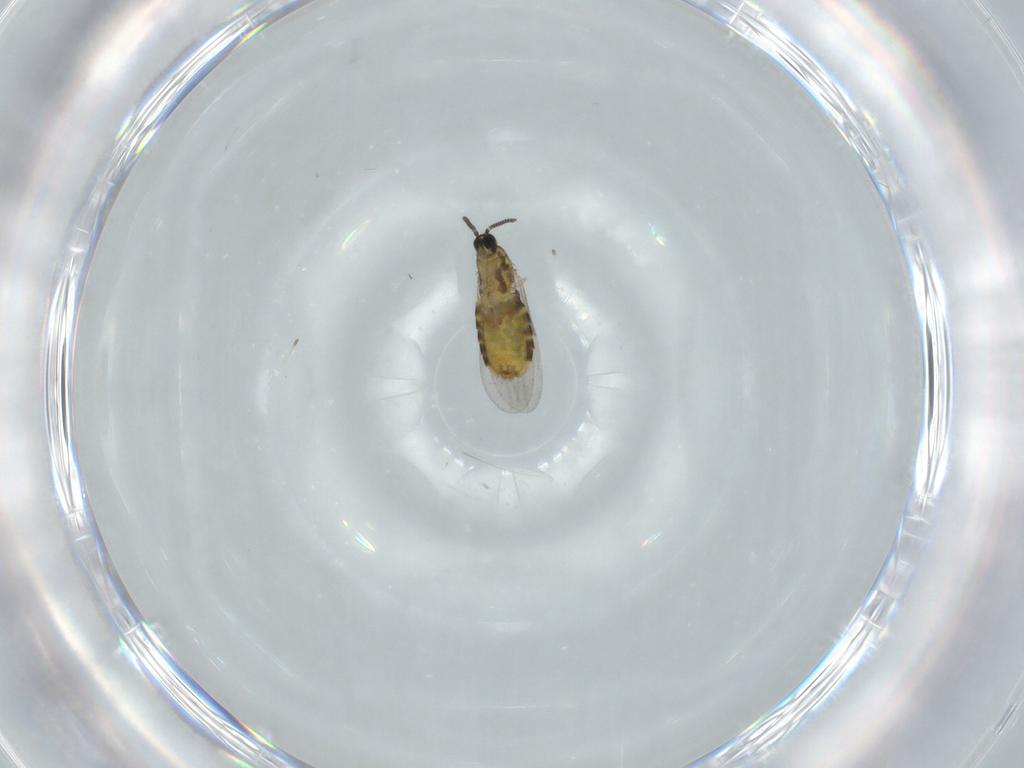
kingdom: Animalia
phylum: Arthropoda
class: Insecta
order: Diptera
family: Scatopsidae
